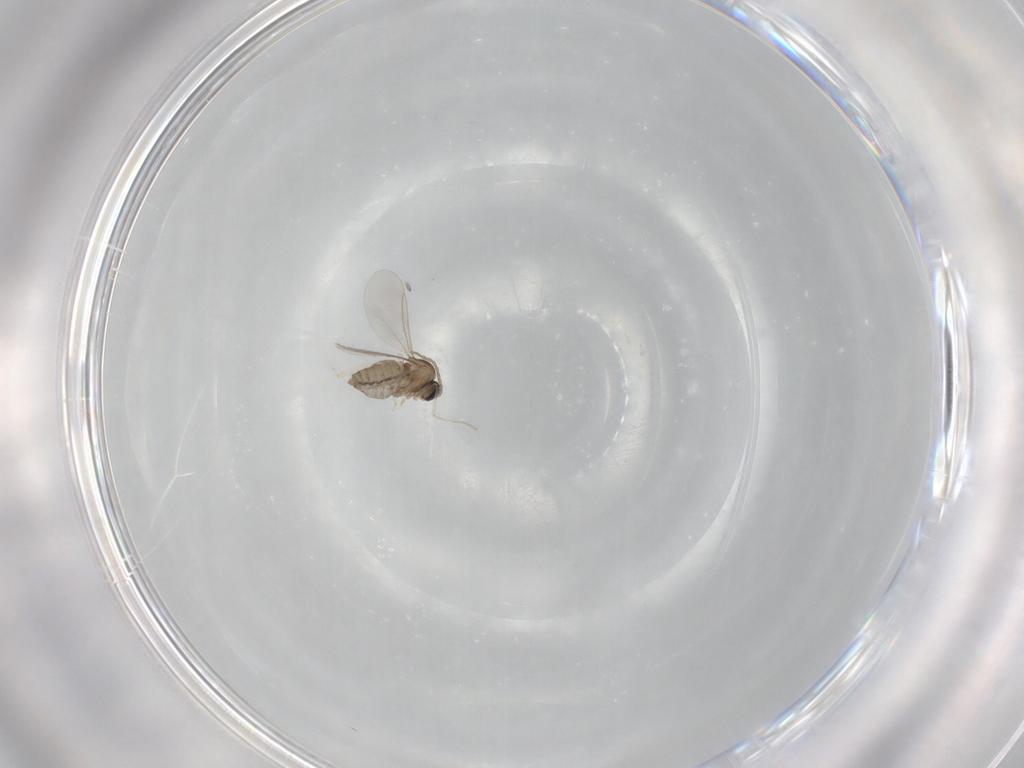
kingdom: Animalia
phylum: Arthropoda
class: Insecta
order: Diptera
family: Cecidomyiidae
